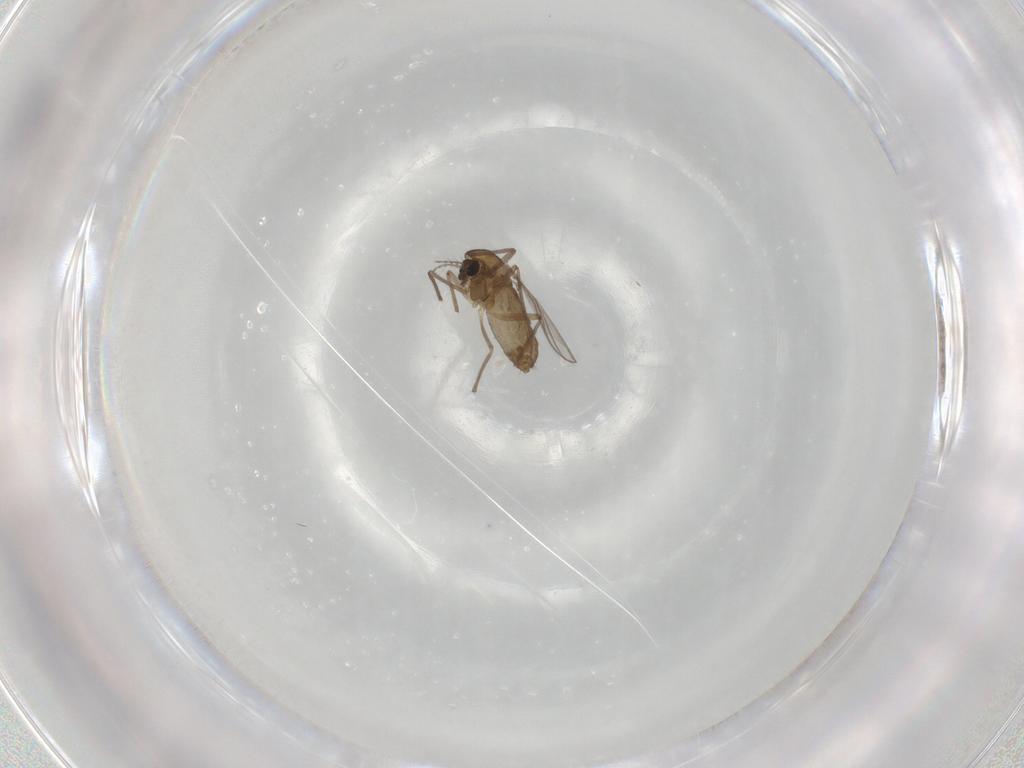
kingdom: Animalia
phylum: Arthropoda
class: Insecta
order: Diptera
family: Chironomidae
